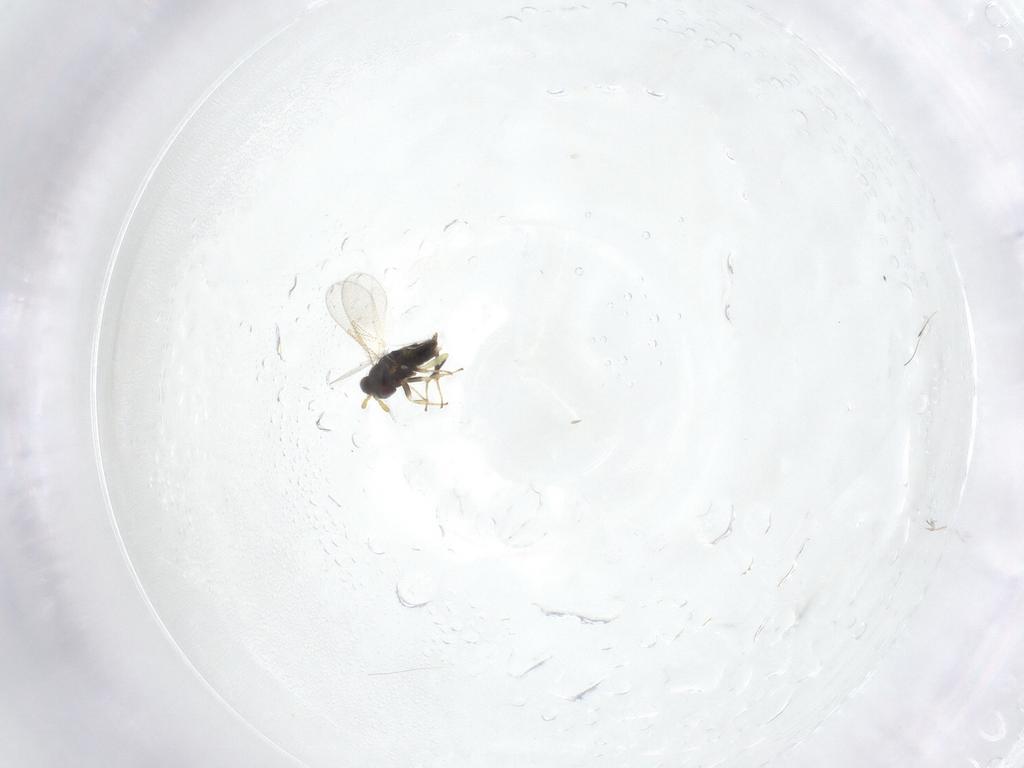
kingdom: Animalia
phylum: Arthropoda
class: Insecta
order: Hymenoptera
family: Aphelinidae
